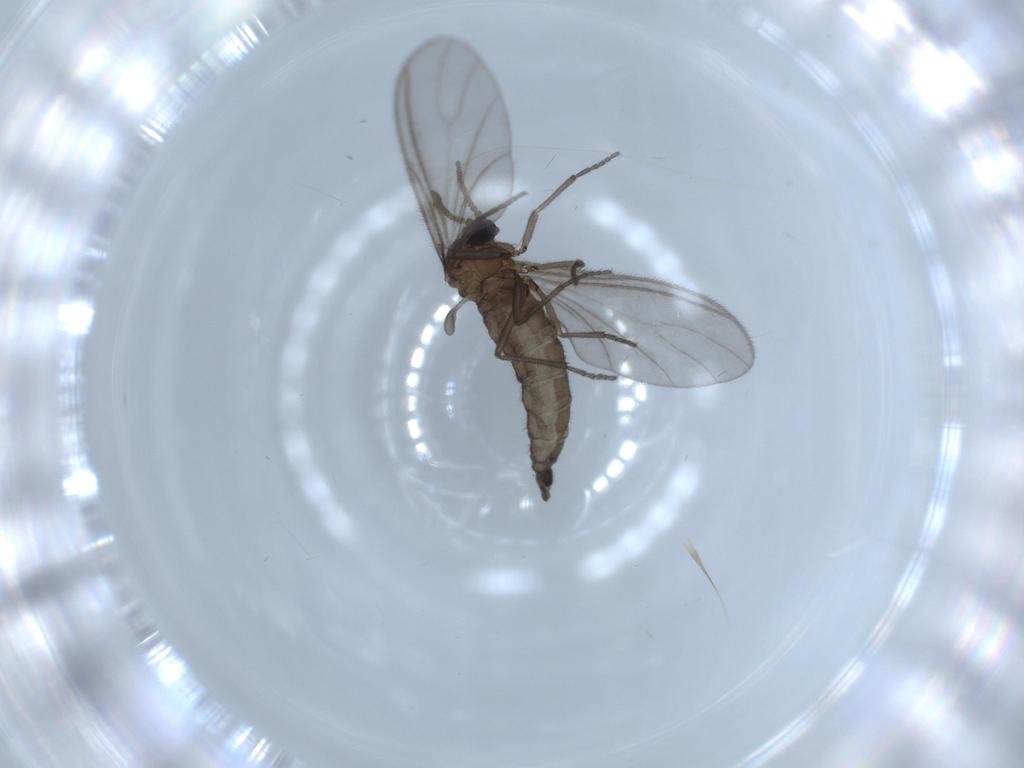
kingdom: Animalia
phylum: Arthropoda
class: Insecta
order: Diptera
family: Sciaridae
